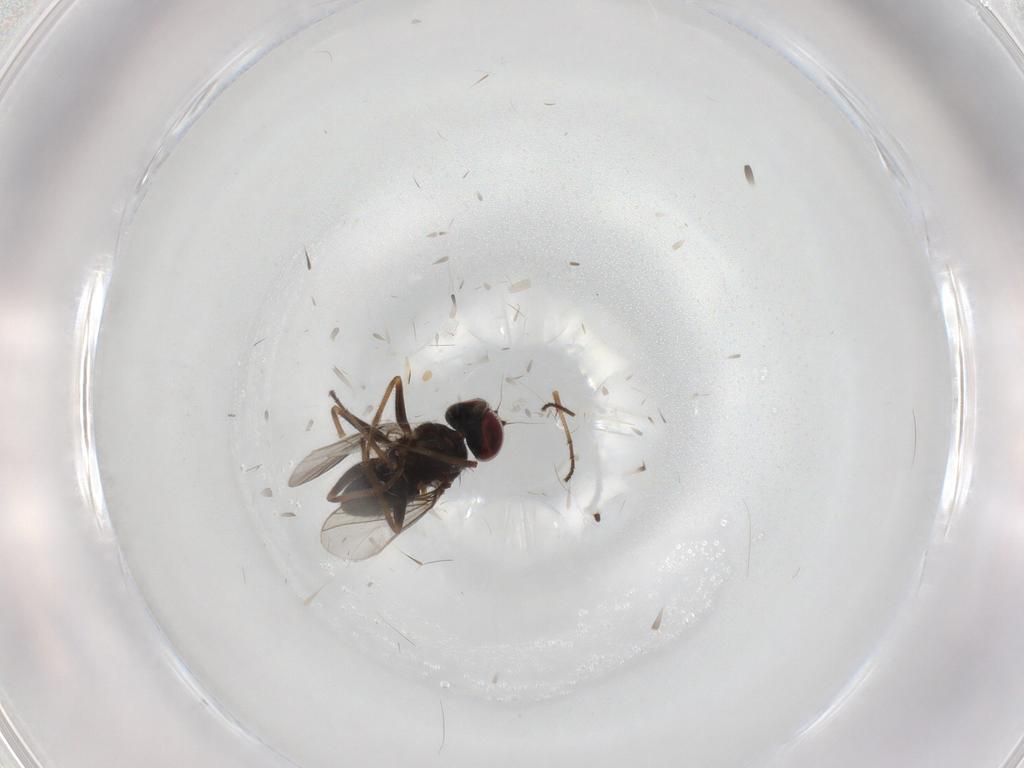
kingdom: Animalia
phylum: Arthropoda
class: Insecta
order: Diptera
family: Dolichopodidae
